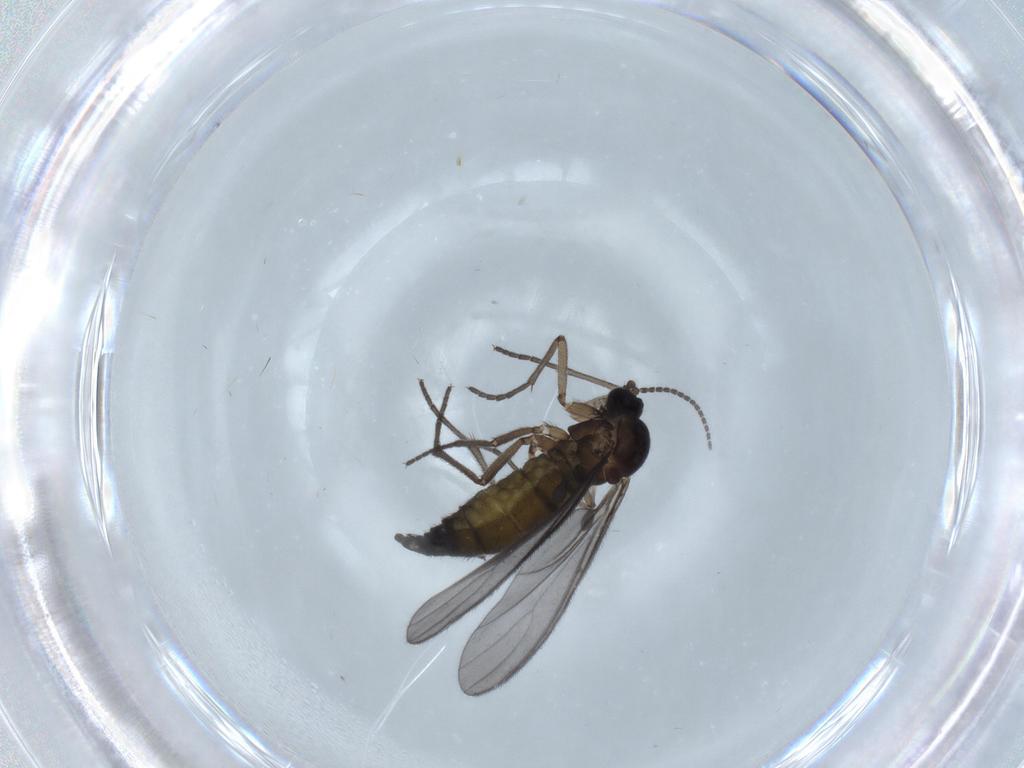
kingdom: Animalia
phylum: Arthropoda
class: Insecta
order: Diptera
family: Sciaridae
